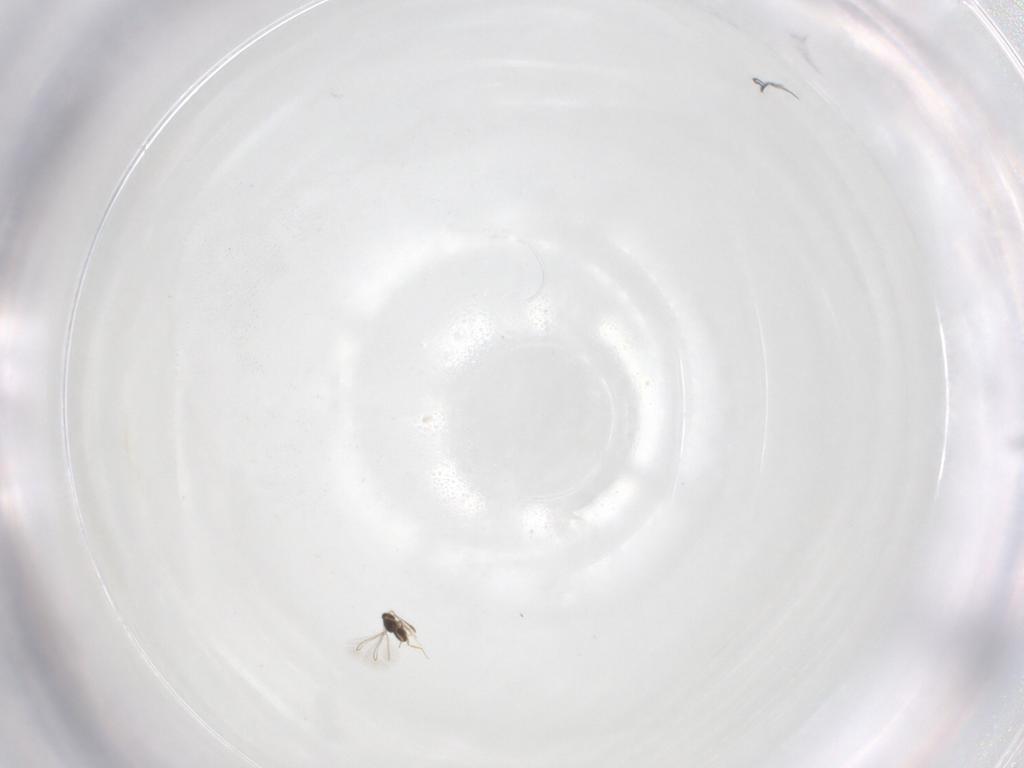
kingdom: Animalia
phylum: Arthropoda
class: Insecta
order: Hymenoptera
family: Mymaridae
